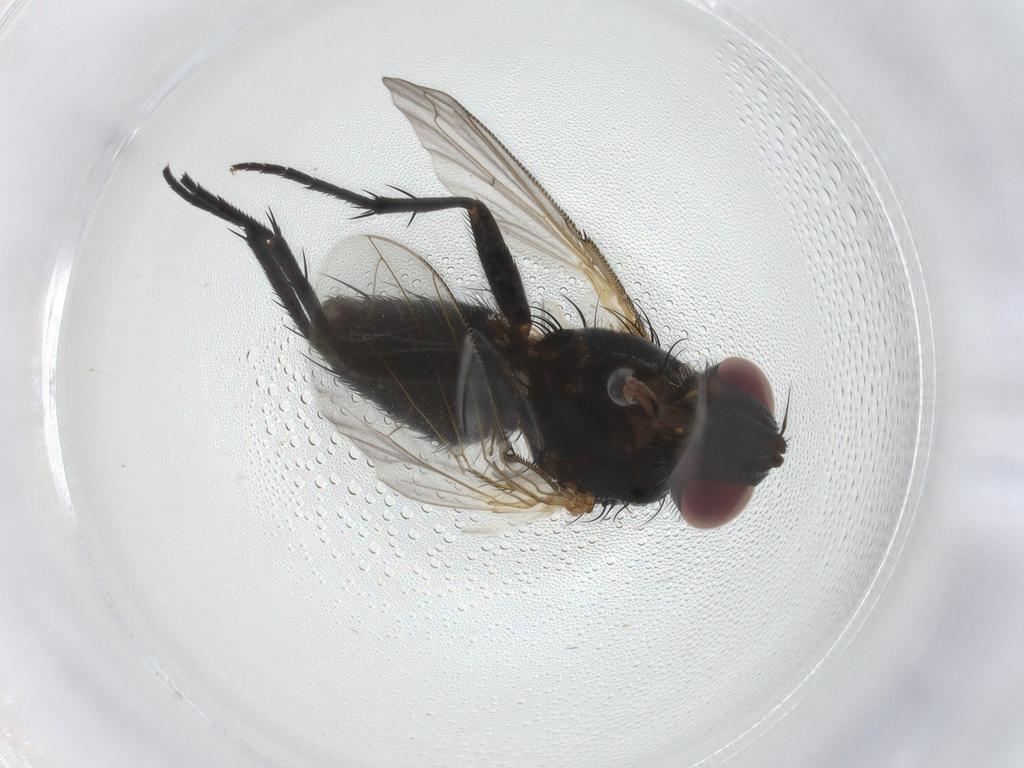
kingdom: Animalia
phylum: Arthropoda
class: Insecta
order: Diptera
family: Tachinidae
